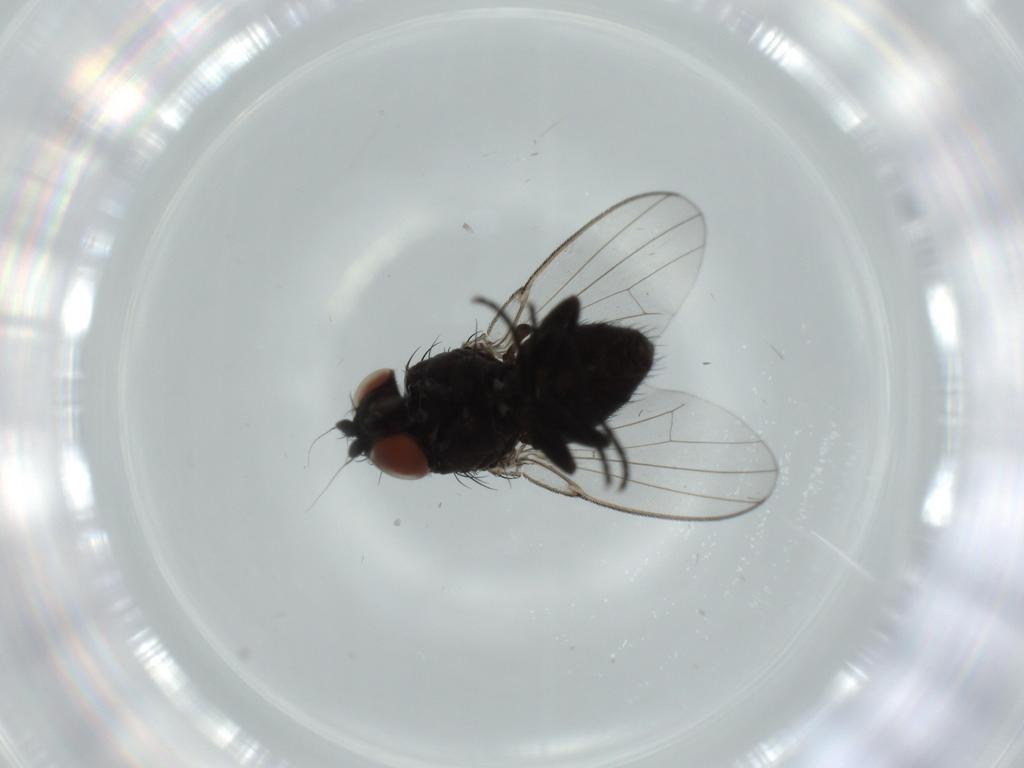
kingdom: Animalia
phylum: Arthropoda
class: Insecta
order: Diptera
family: Milichiidae
